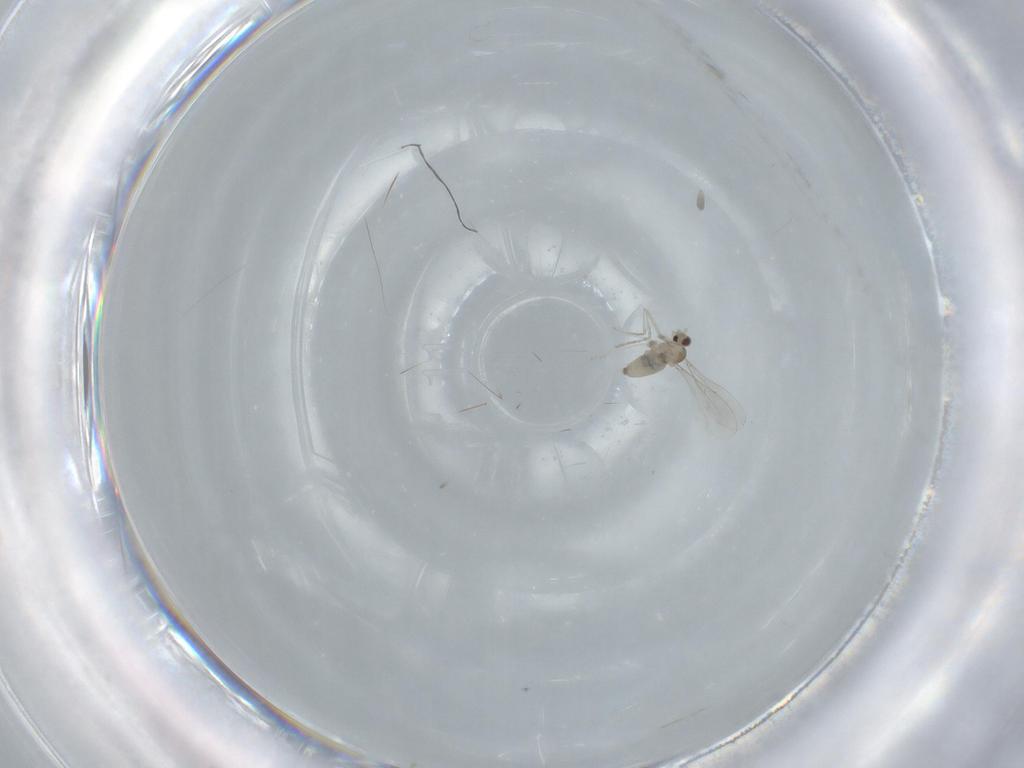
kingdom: Animalia
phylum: Arthropoda
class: Insecta
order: Diptera
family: Cecidomyiidae
